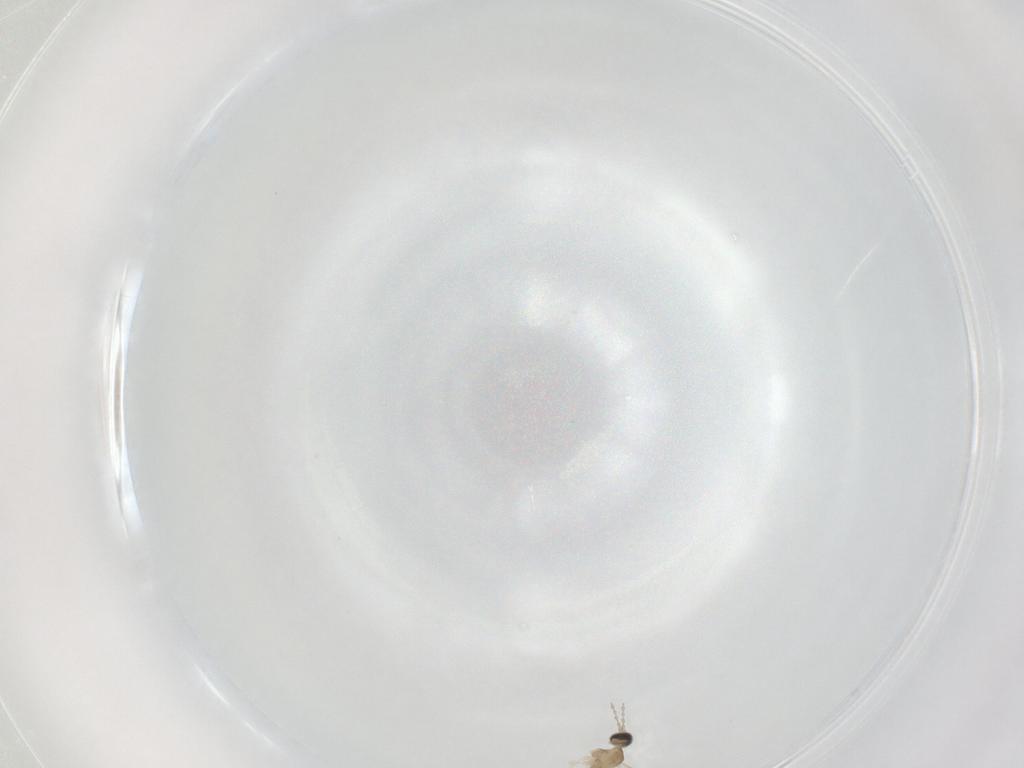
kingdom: Animalia
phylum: Arthropoda
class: Insecta
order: Diptera
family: Cecidomyiidae
